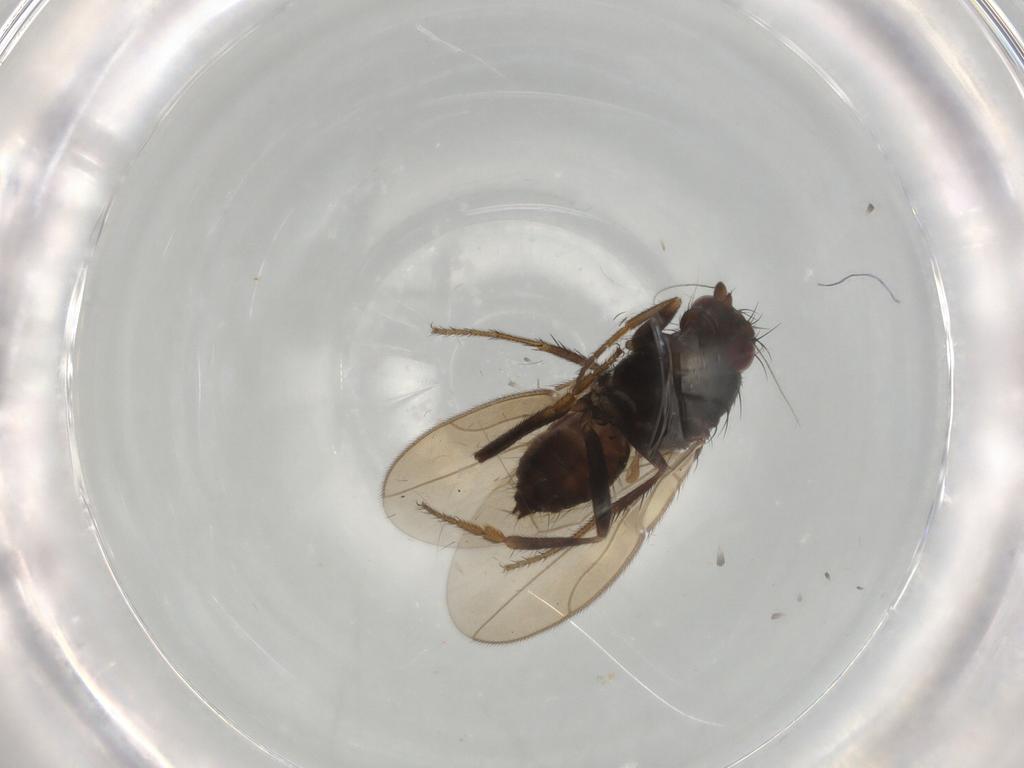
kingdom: Animalia
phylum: Arthropoda
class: Insecta
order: Diptera
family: Sphaeroceridae
